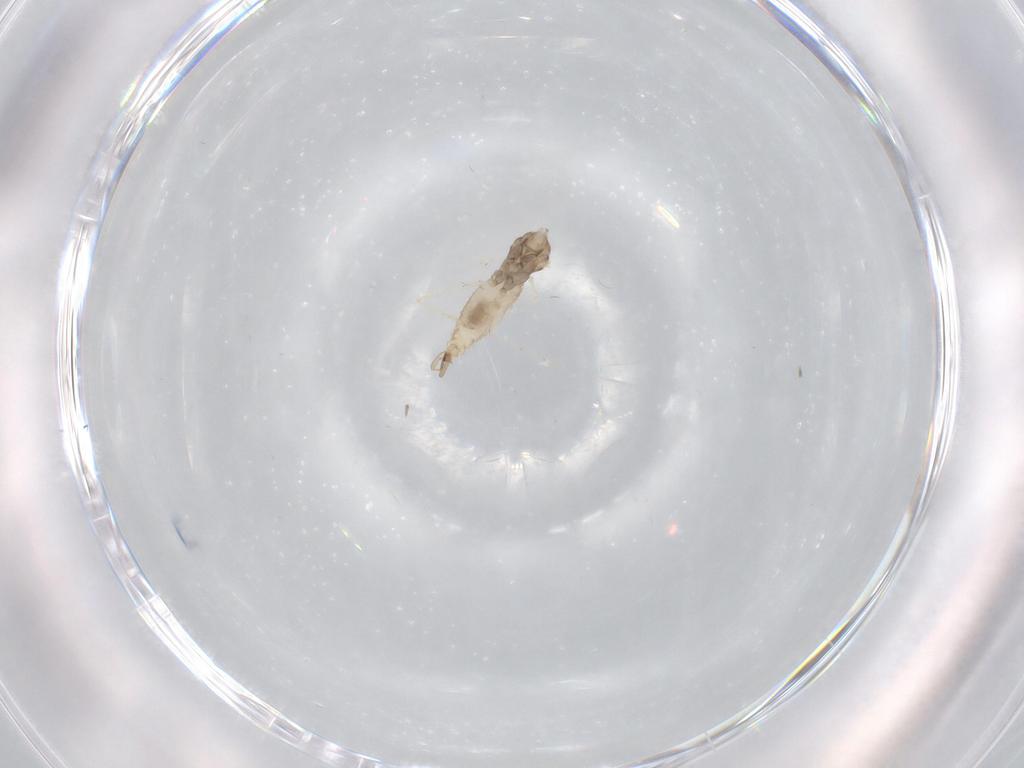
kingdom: Animalia
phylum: Arthropoda
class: Insecta
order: Diptera
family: Cecidomyiidae
